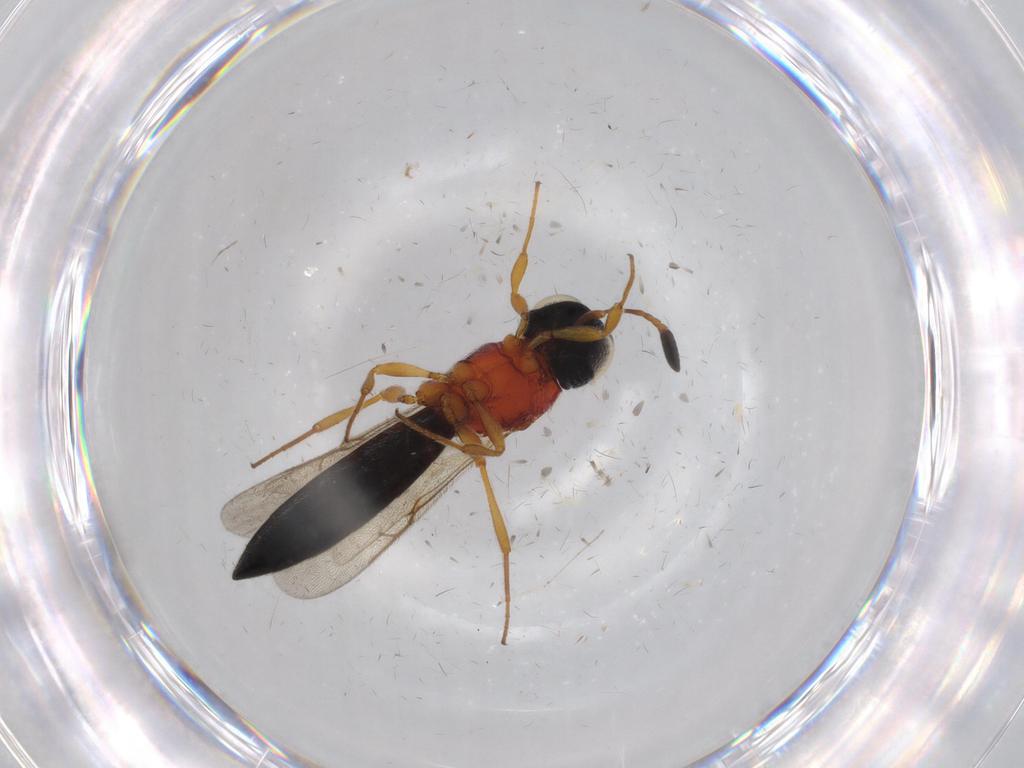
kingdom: Animalia
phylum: Arthropoda
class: Insecta
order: Hymenoptera
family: Scelionidae
